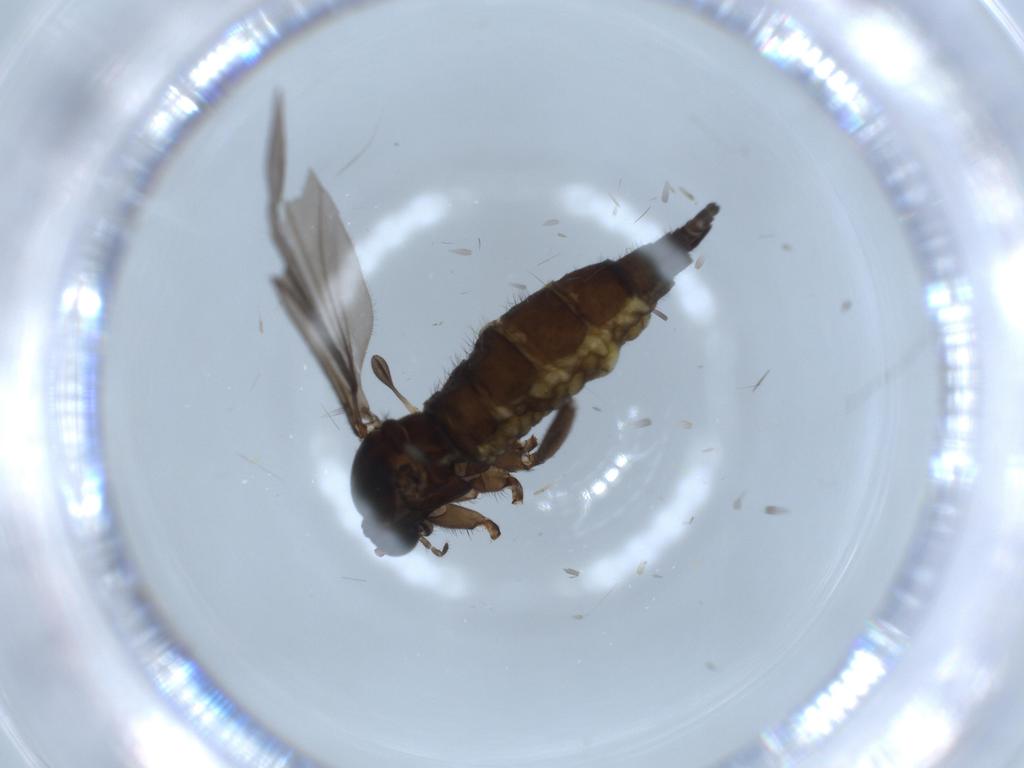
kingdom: Animalia
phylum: Arthropoda
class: Insecta
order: Diptera
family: Sciaridae
